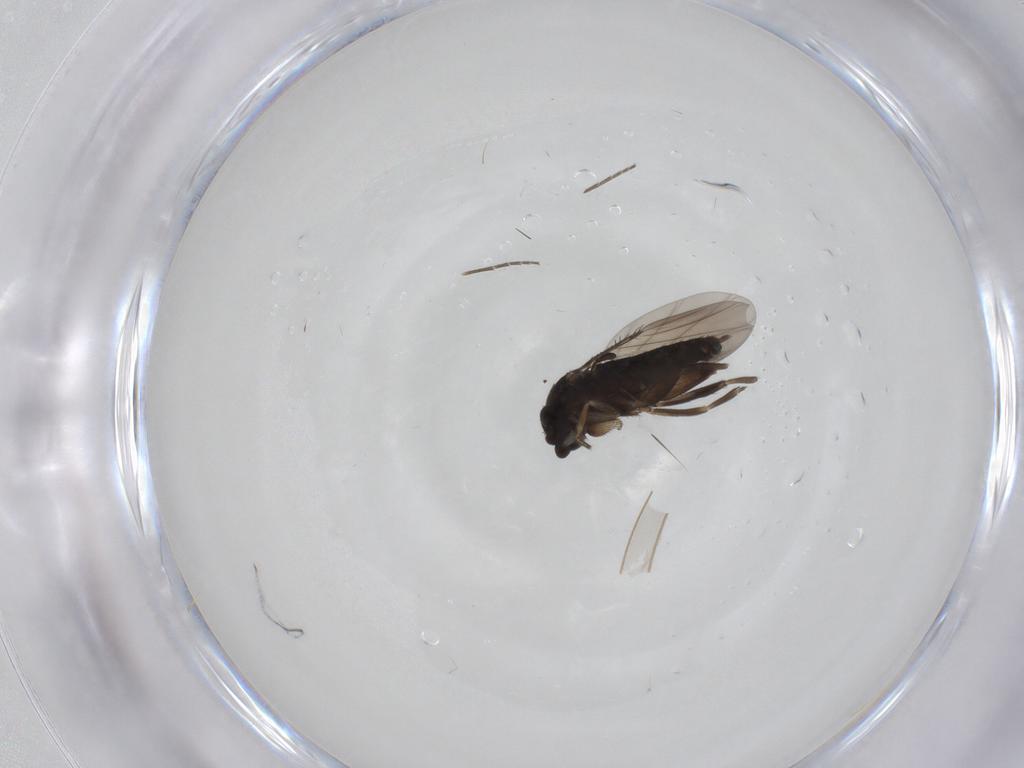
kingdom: Animalia
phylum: Arthropoda
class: Insecta
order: Diptera
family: Phoridae
